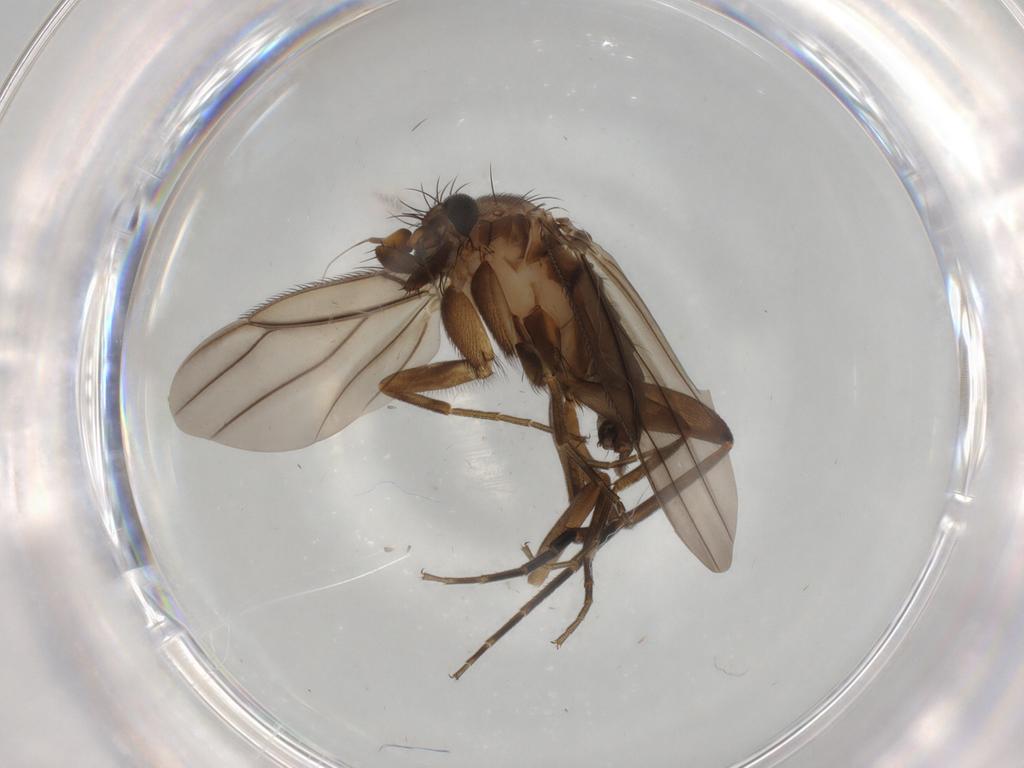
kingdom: Animalia
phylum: Arthropoda
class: Insecta
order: Diptera
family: Phoridae
